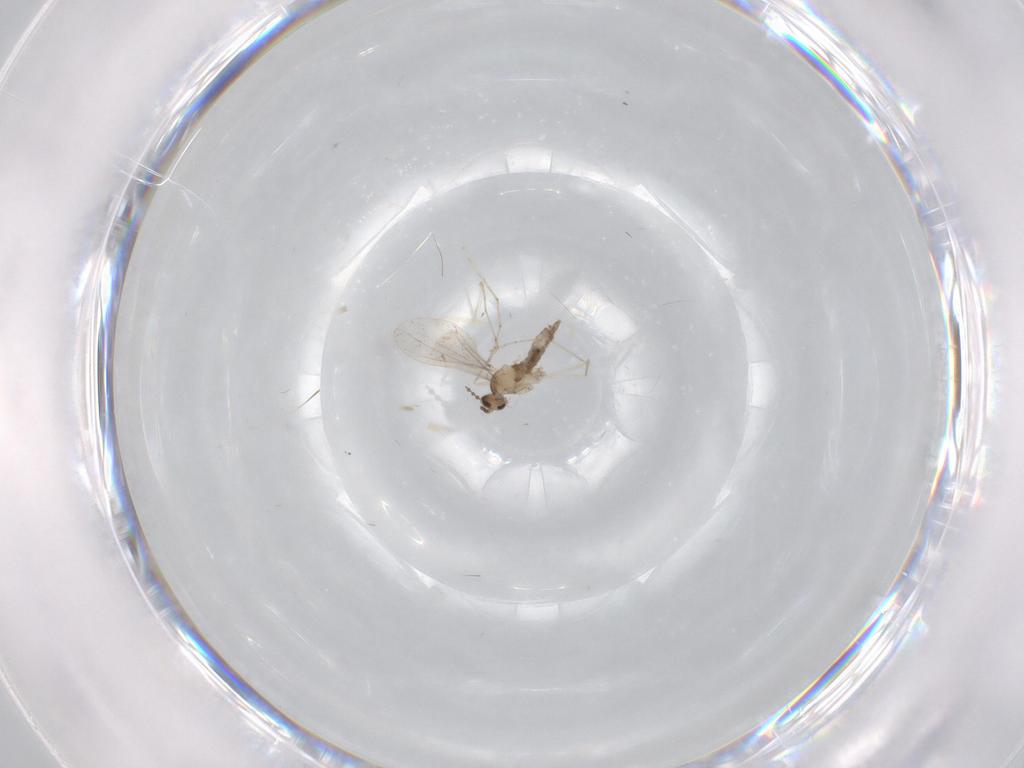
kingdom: Animalia
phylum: Arthropoda
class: Insecta
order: Diptera
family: Cecidomyiidae
